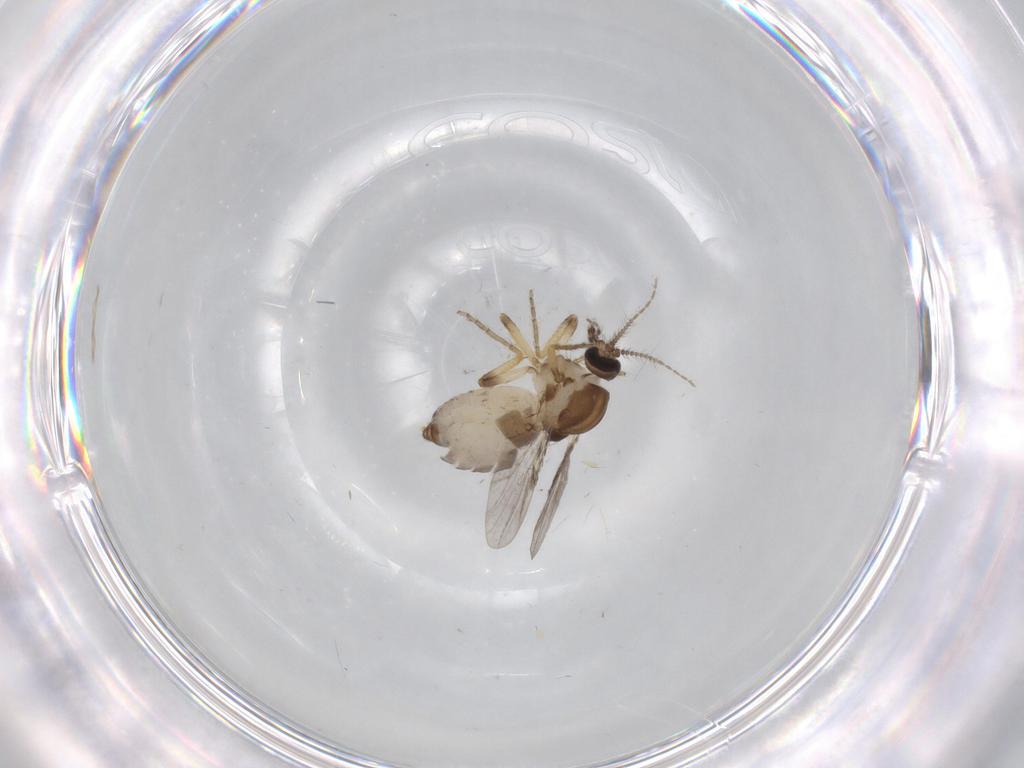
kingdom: Animalia
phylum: Arthropoda
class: Insecta
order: Diptera
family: Ceratopogonidae
